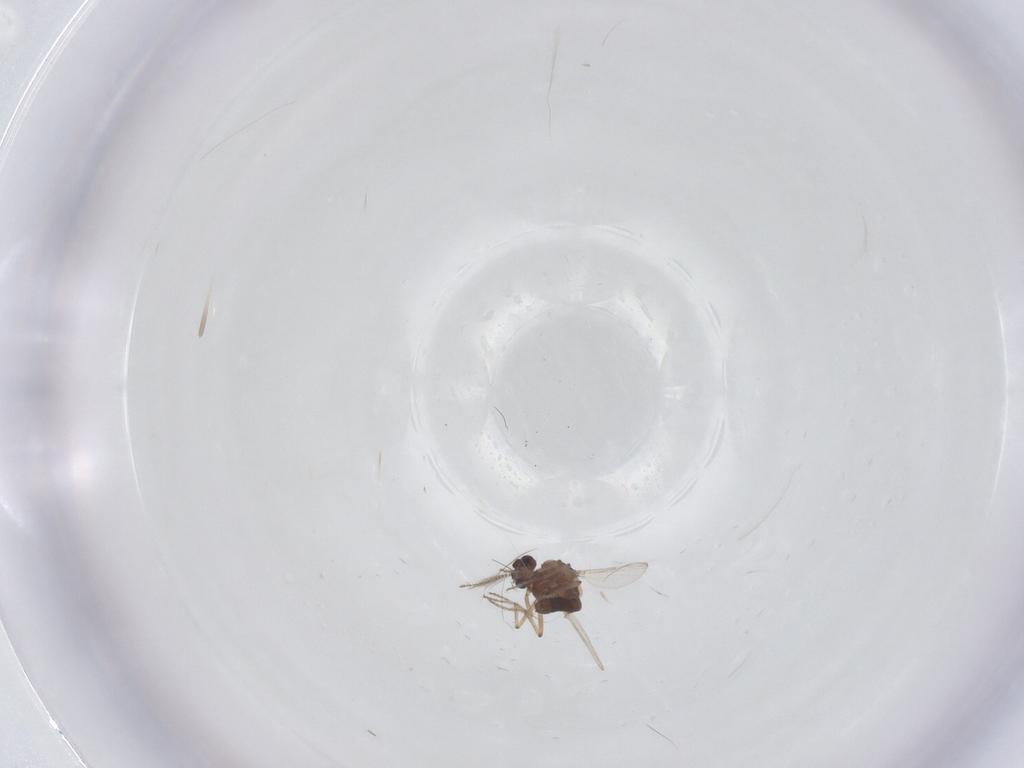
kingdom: Animalia
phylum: Arthropoda
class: Insecta
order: Diptera
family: Ceratopogonidae
